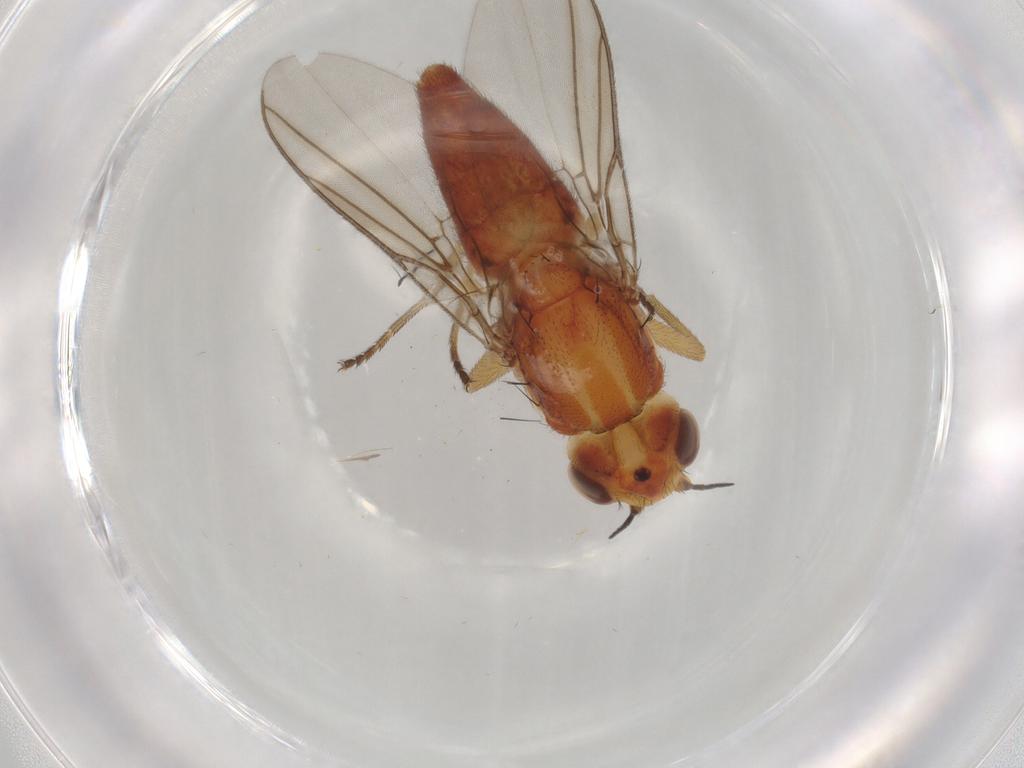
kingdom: Animalia
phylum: Arthropoda
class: Insecta
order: Diptera
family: Chloropidae
